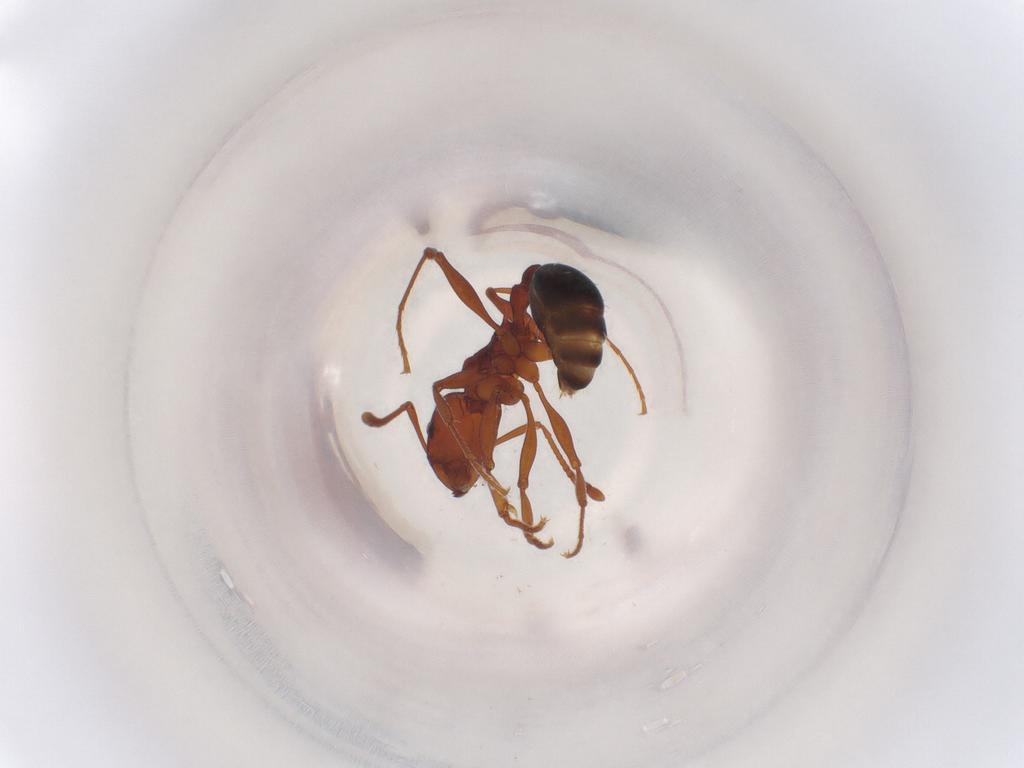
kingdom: Animalia
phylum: Arthropoda
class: Insecta
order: Hymenoptera
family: Formicidae
